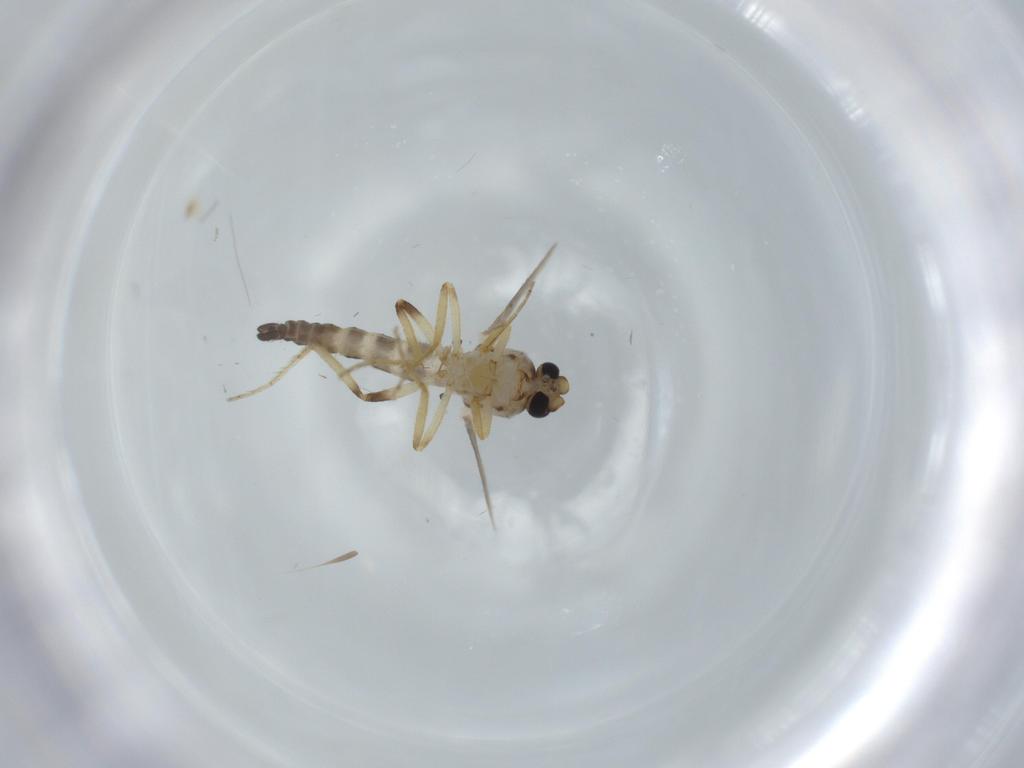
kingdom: Animalia
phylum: Arthropoda
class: Insecta
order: Diptera
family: Ceratopogonidae
